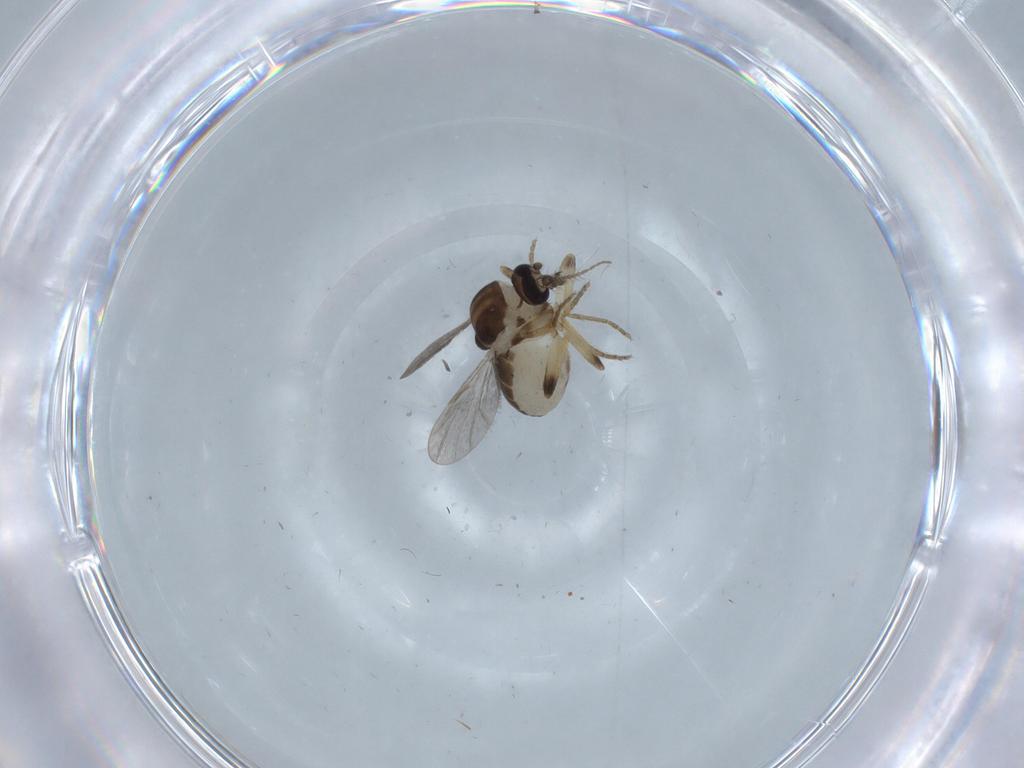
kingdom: Animalia
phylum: Arthropoda
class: Insecta
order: Diptera
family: Ceratopogonidae
